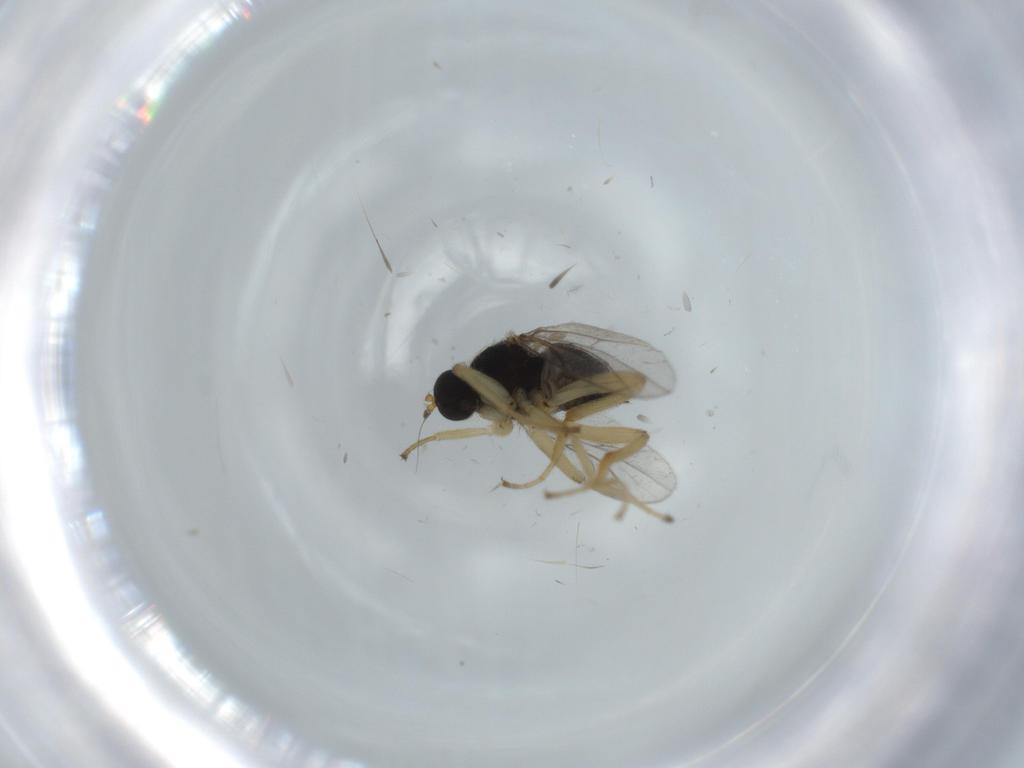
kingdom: Animalia
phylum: Arthropoda
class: Insecta
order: Diptera
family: Hybotidae
